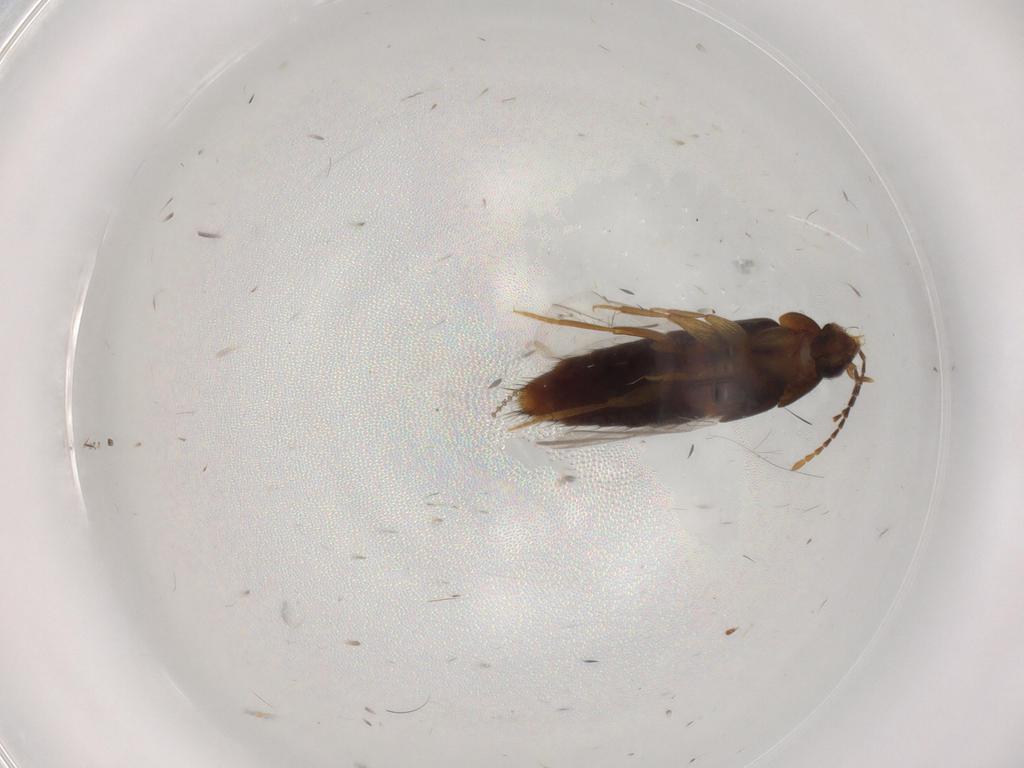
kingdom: Animalia
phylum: Arthropoda
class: Insecta
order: Coleoptera
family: Staphylinidae
